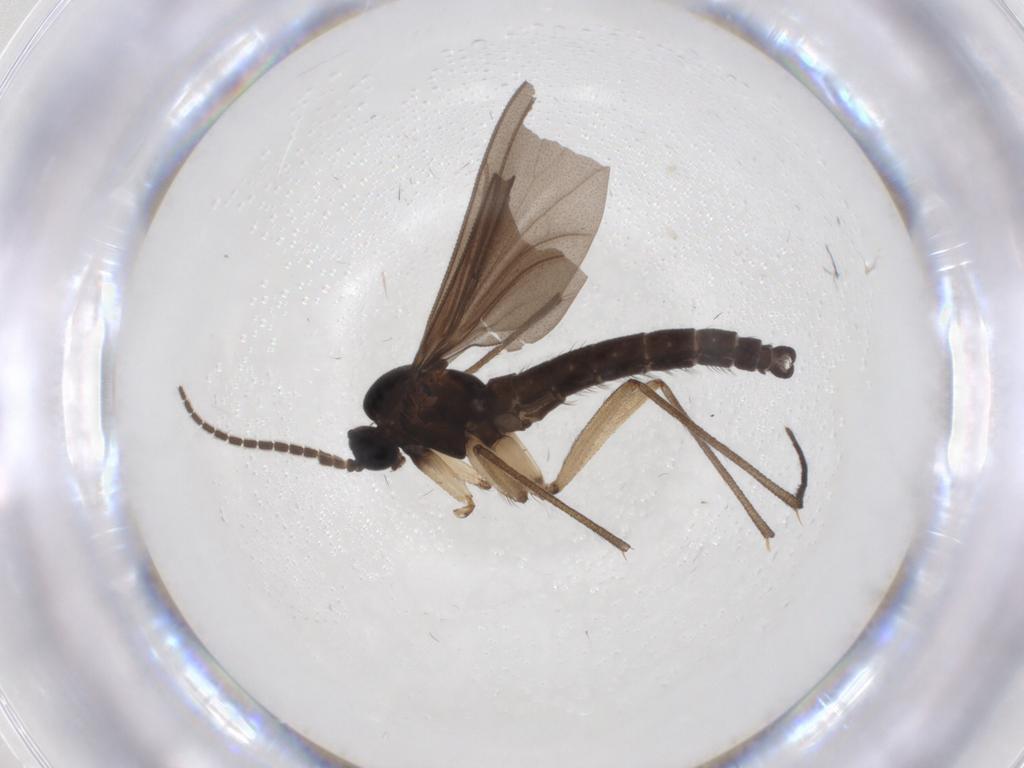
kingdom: Animalia
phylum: Arthropoda
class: Insecta
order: Diptera
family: Sciaridae
